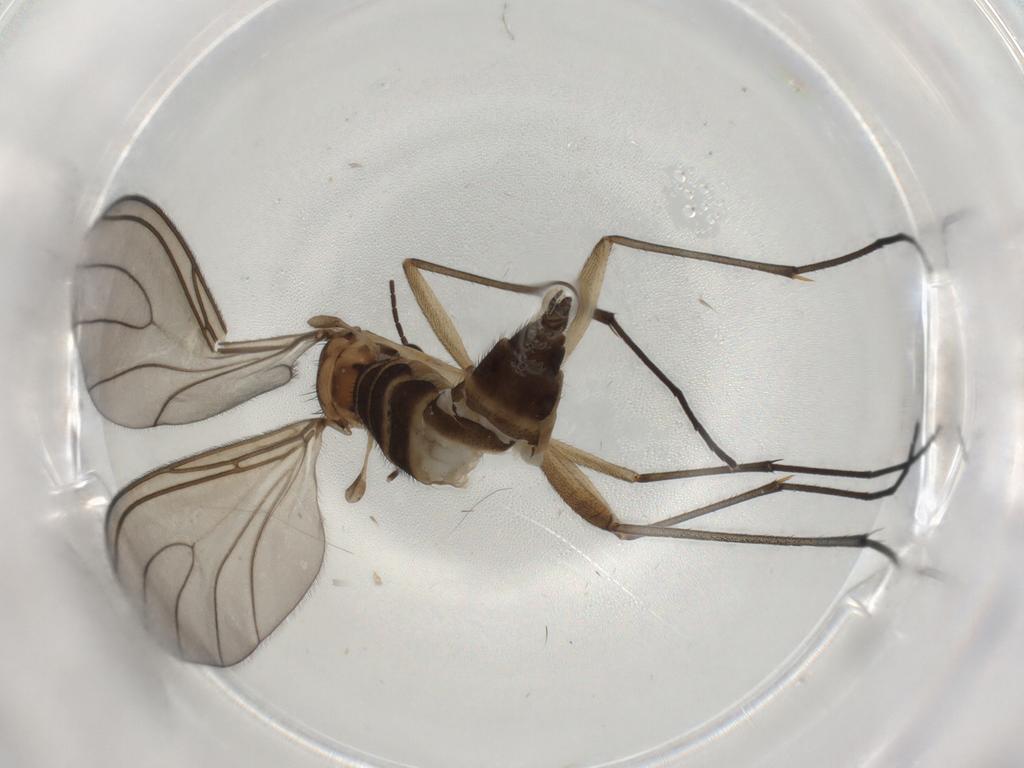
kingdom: Animalia
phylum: Arthropoda
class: Insecta
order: Diptera
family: Sciaridae
